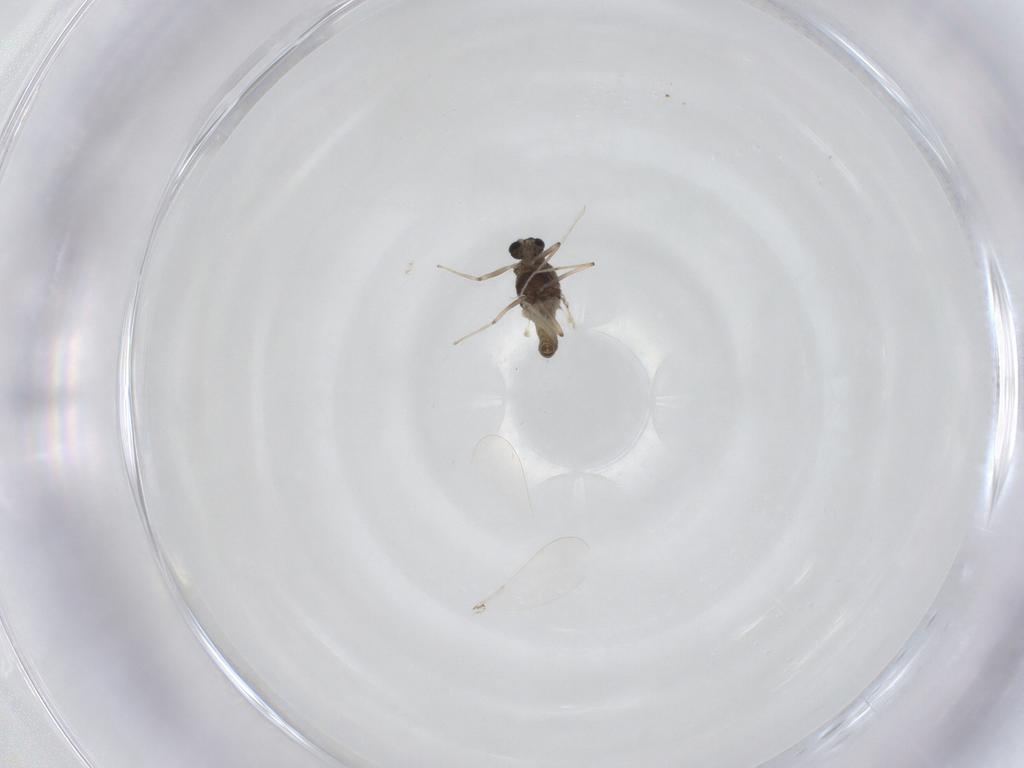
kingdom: Animalia
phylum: Arthropoda
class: Insecta
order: Diptera
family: Chironomidae
